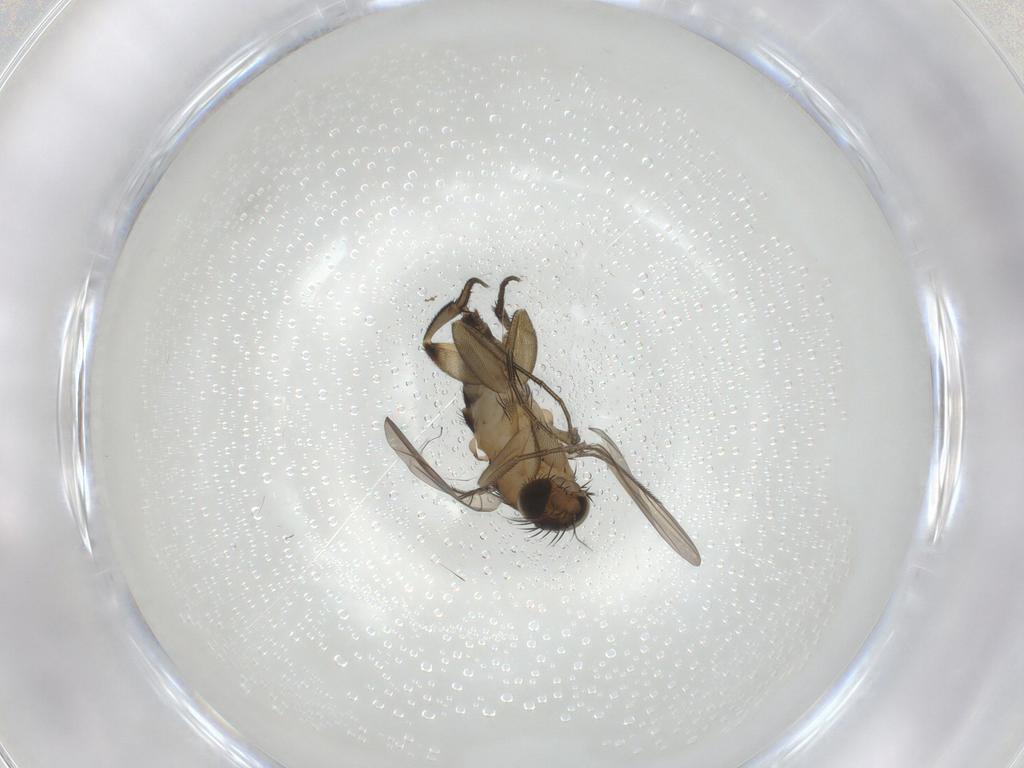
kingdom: Animalia
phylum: Arthropoda
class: Insecta
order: Diptera
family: Phoridae
